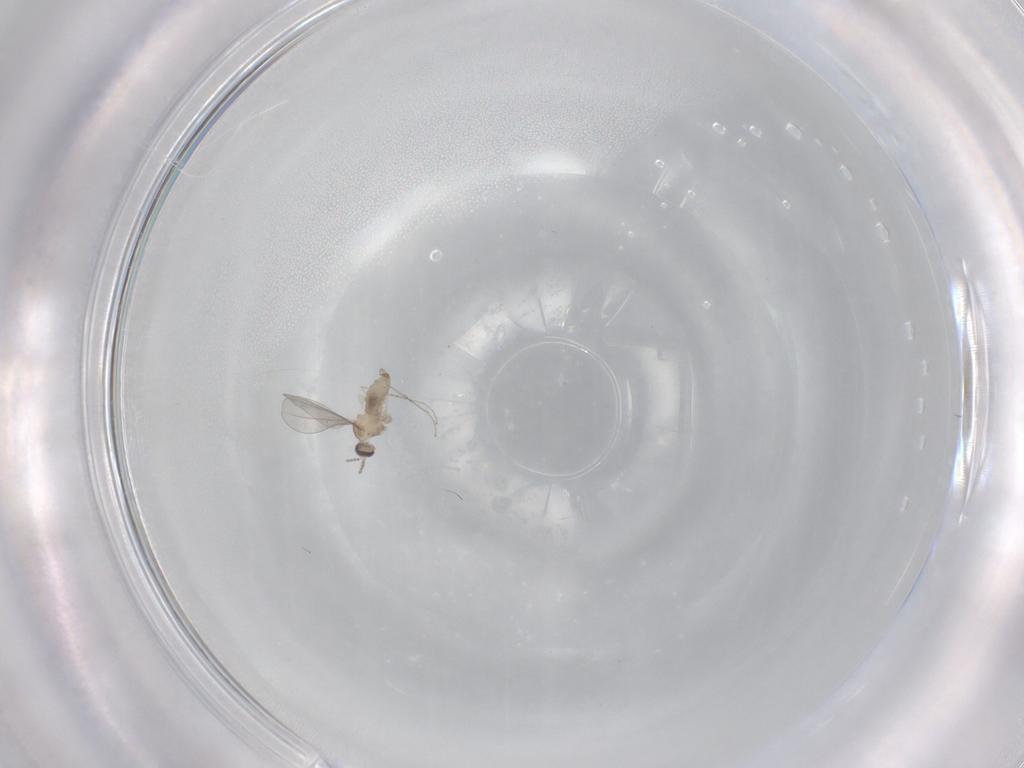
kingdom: Animalia
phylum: Arthropoda
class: Insecta
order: Diptera
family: Cecidomyiidae
